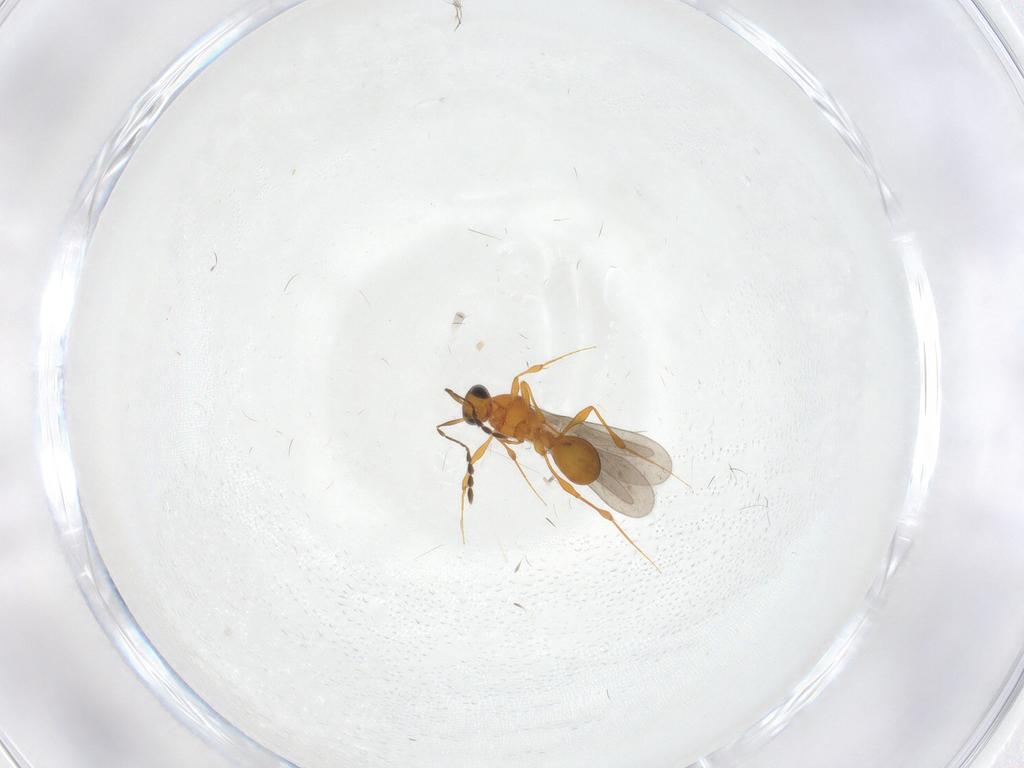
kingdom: Animalia
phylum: Arthropoda
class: Insecta
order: Hymenoptera
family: Platygastridae
